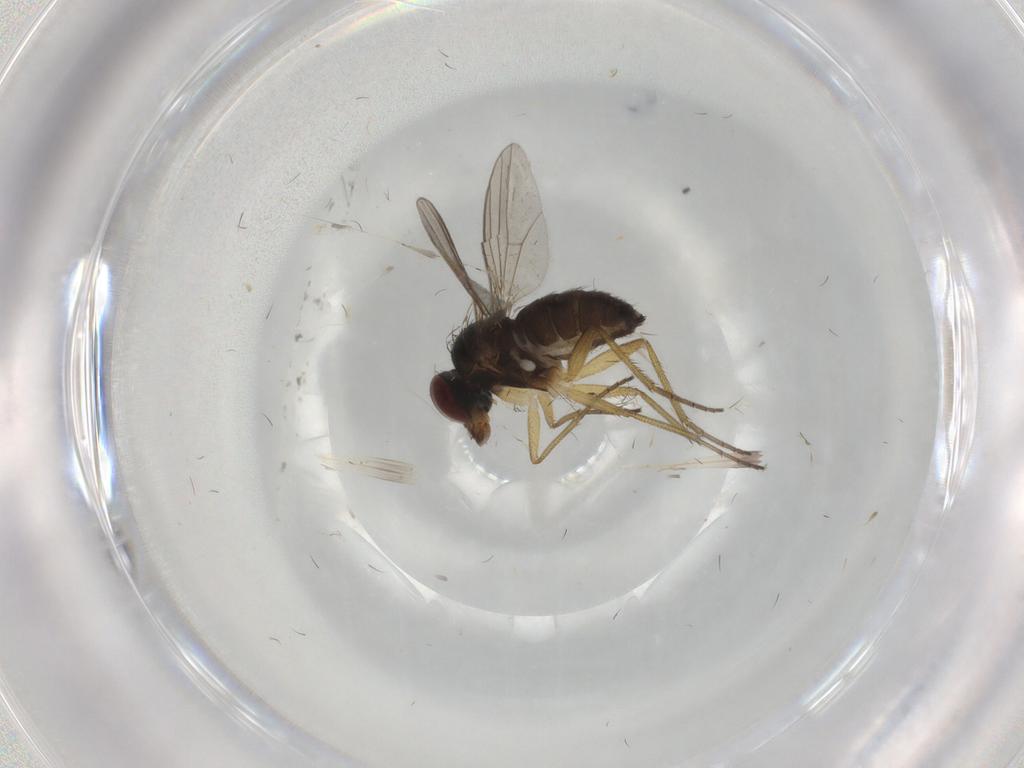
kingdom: Animalia
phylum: Arthropoda
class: Insecta
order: Diptera
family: Dolichopodidae
